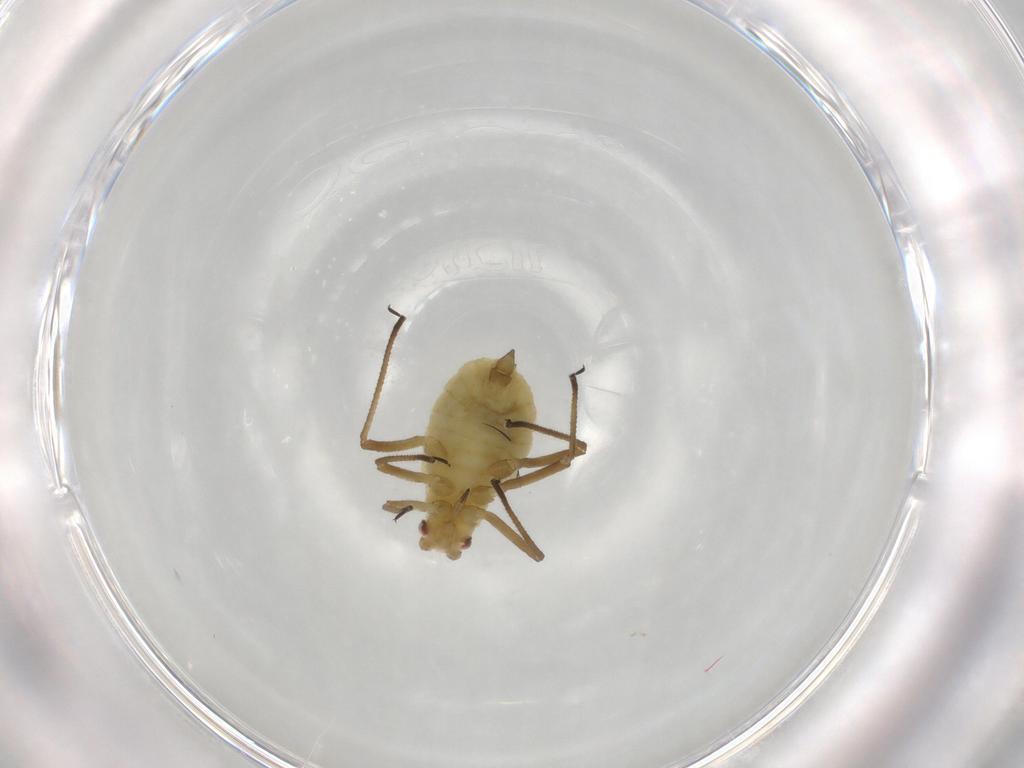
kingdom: Animalia
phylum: Arthropoda
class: Insecta
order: Hemiptera
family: Aphididae
